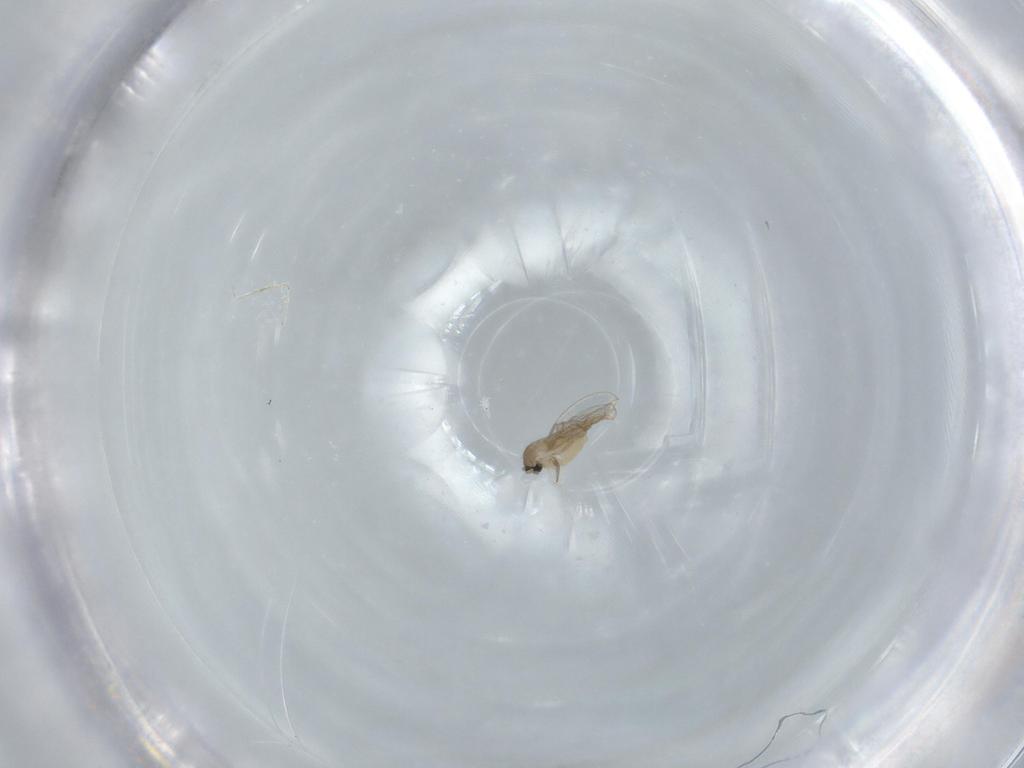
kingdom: Animalia
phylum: Arthropoda
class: Insecta
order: Diptera
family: Cecidomyiidae
